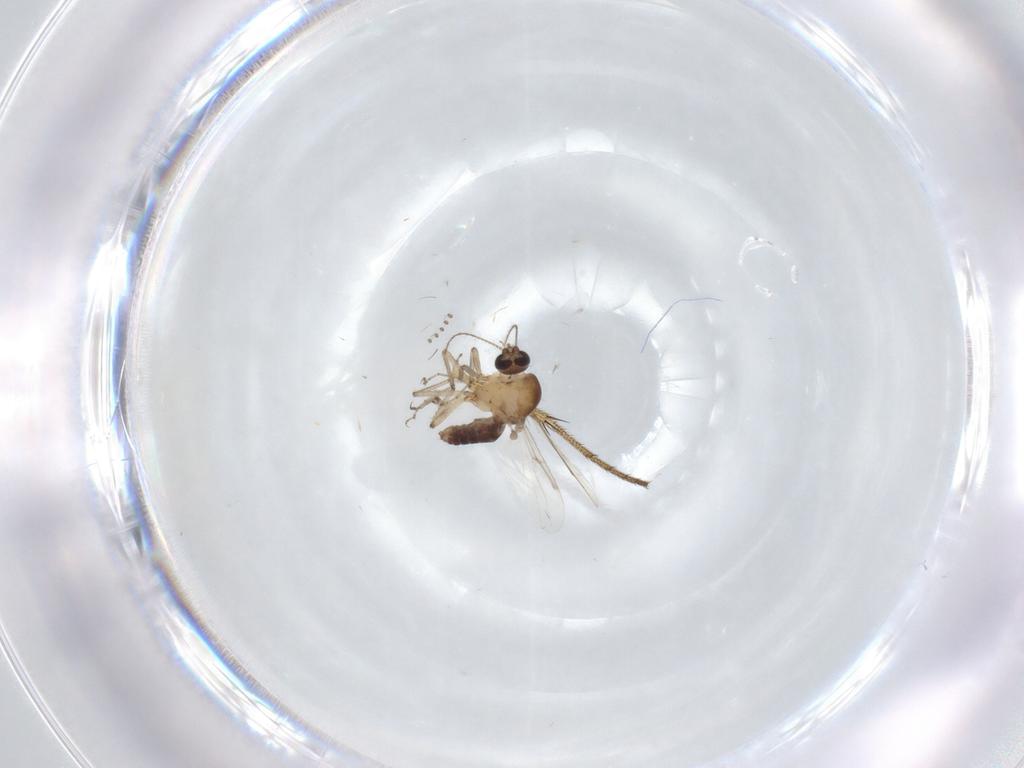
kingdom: Animalia
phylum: Arthropoda
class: Insecta
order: Diptera
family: Ceratopogonidae
